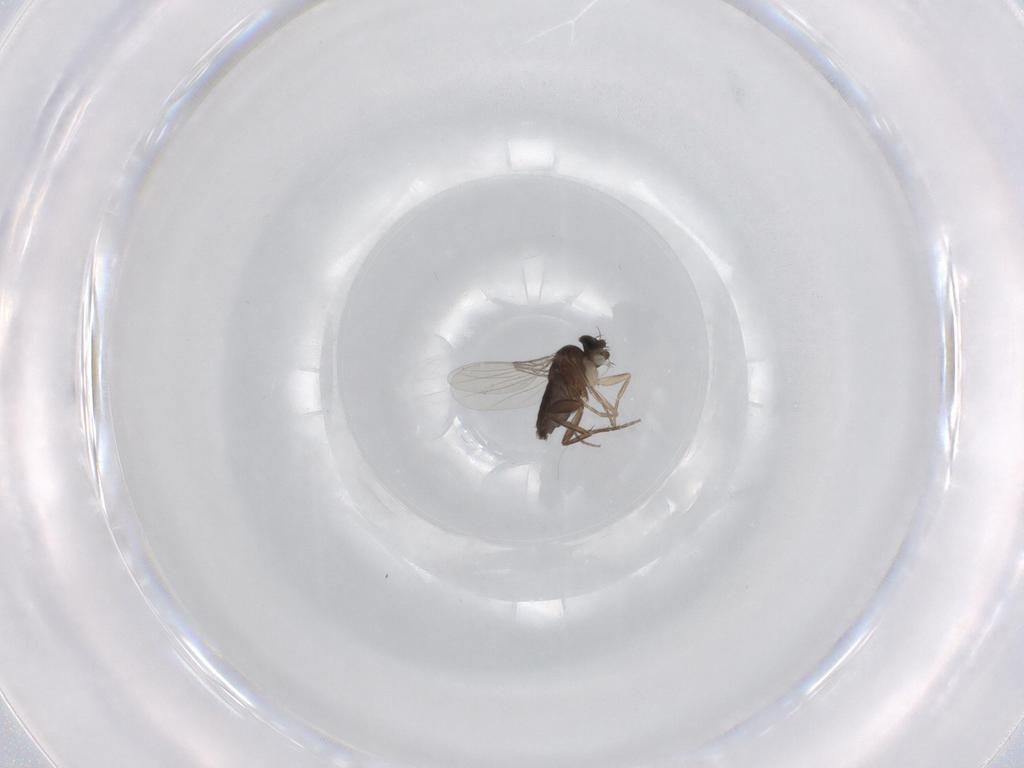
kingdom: Animalia
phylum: Arthropoda
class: Insecta
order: Diptera
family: Phoridae
